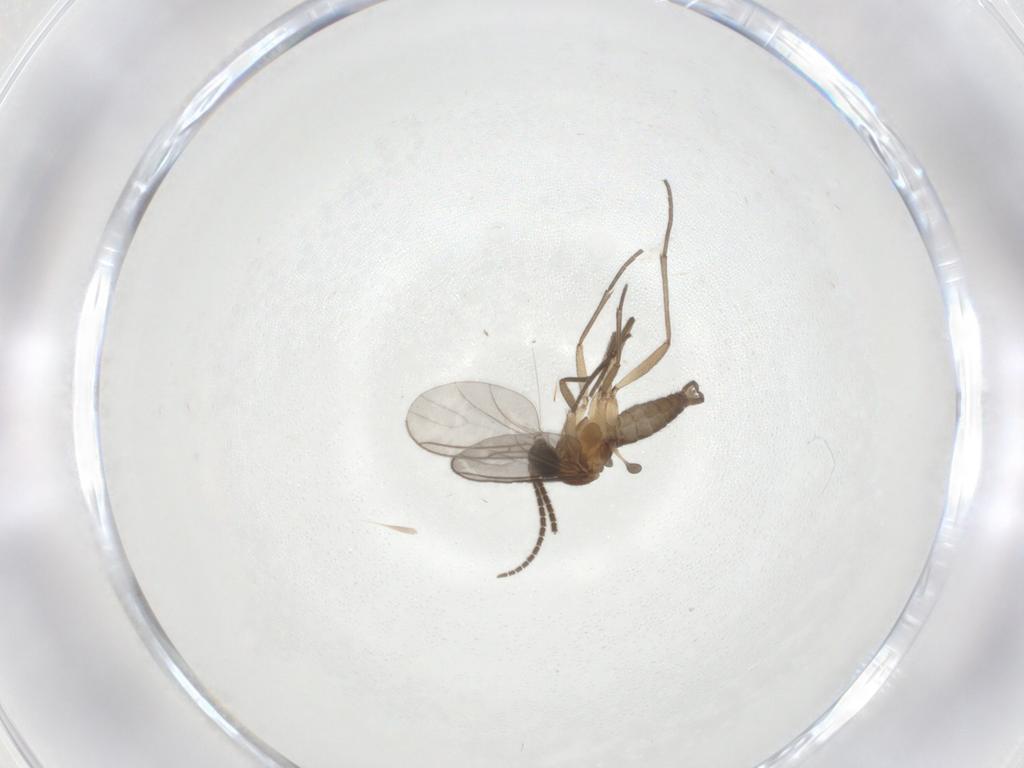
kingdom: Animalia
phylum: Arthropoda
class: Insecta
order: Diptera
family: Sciaridae
